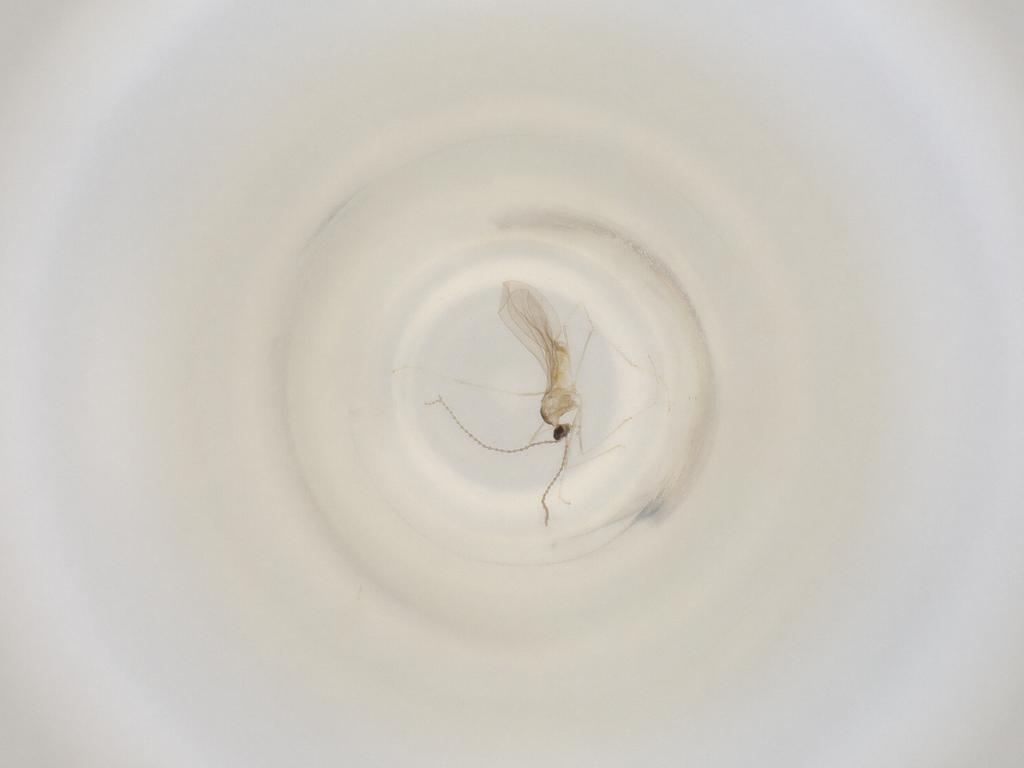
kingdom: Animalia
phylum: Arthropoda
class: Insecta
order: Diptera
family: Cecidomyiidae
